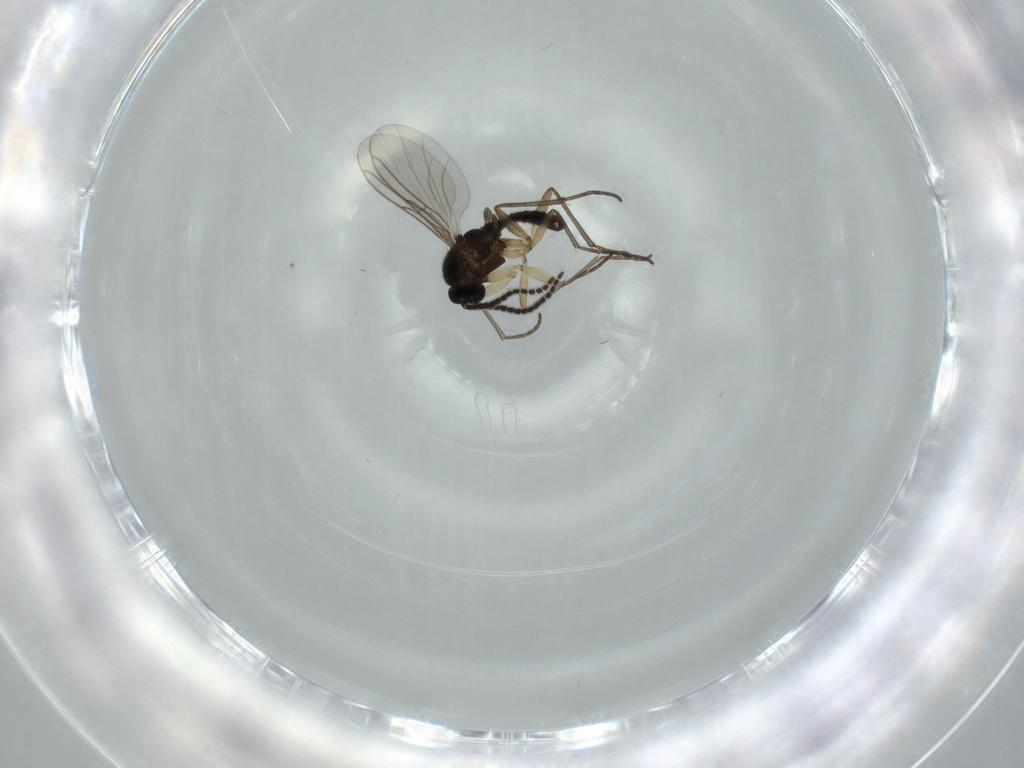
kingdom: Animalia
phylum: Arthropoda
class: Insecta
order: Diptera
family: Sciaridae
